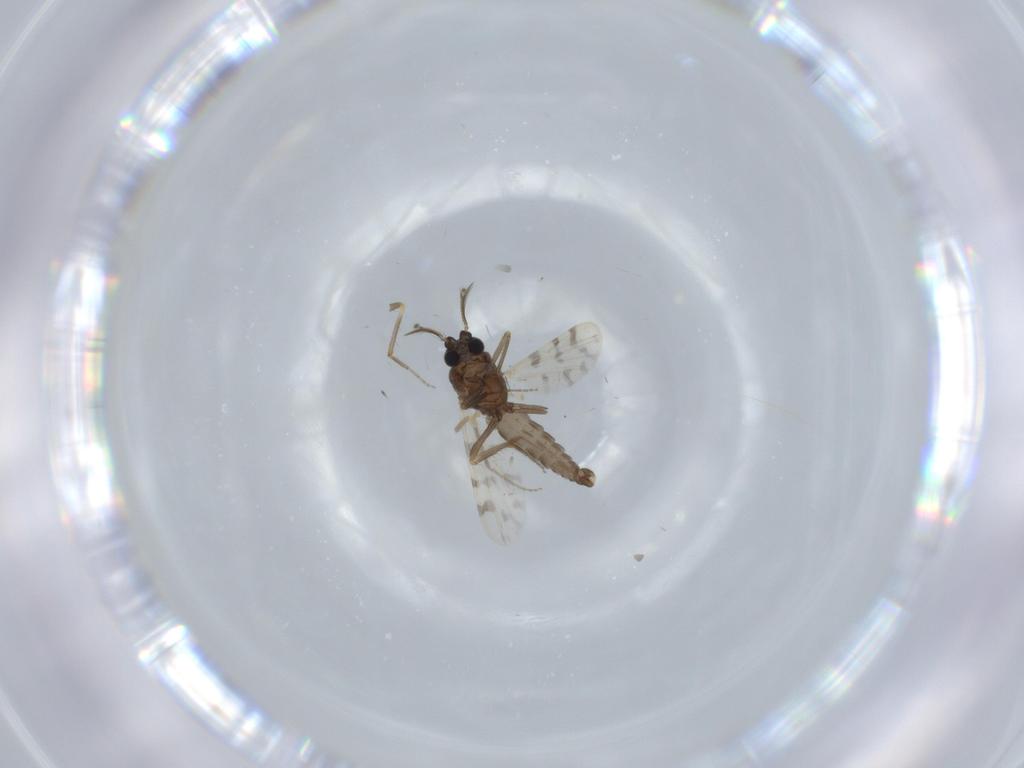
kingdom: Animalia
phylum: Arthropoda
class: Insecta
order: Diptera
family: Ceratopogonidae
